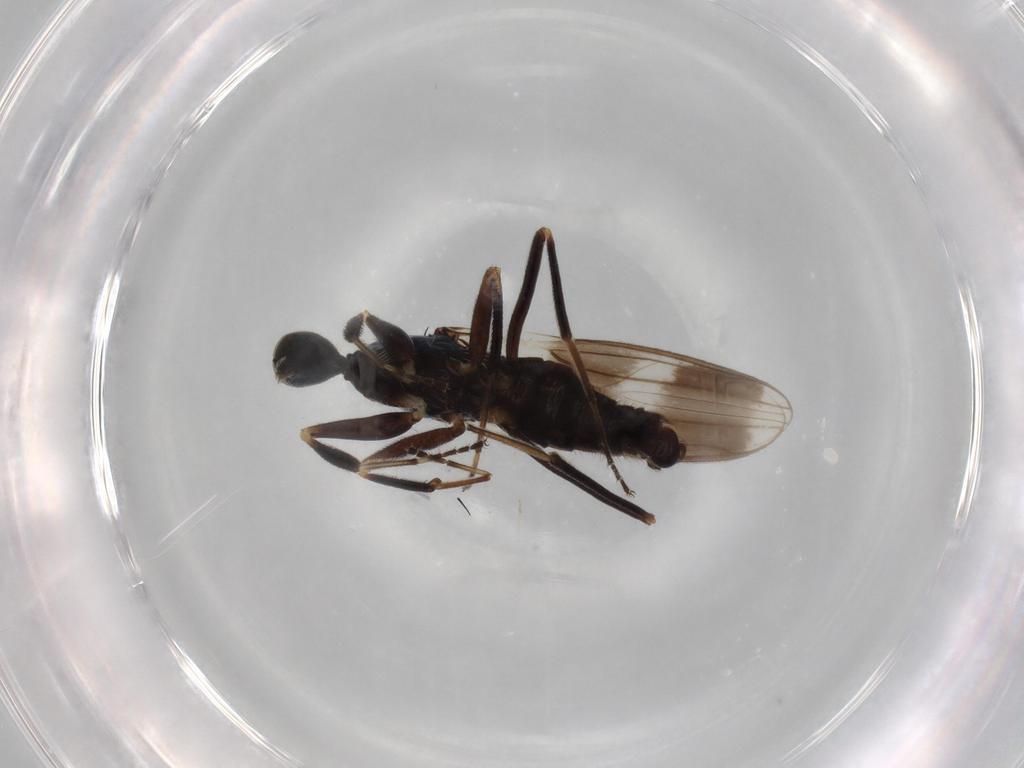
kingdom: Animalia
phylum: Arthropoda
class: Insecta
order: Diptera
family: Hybotidae
